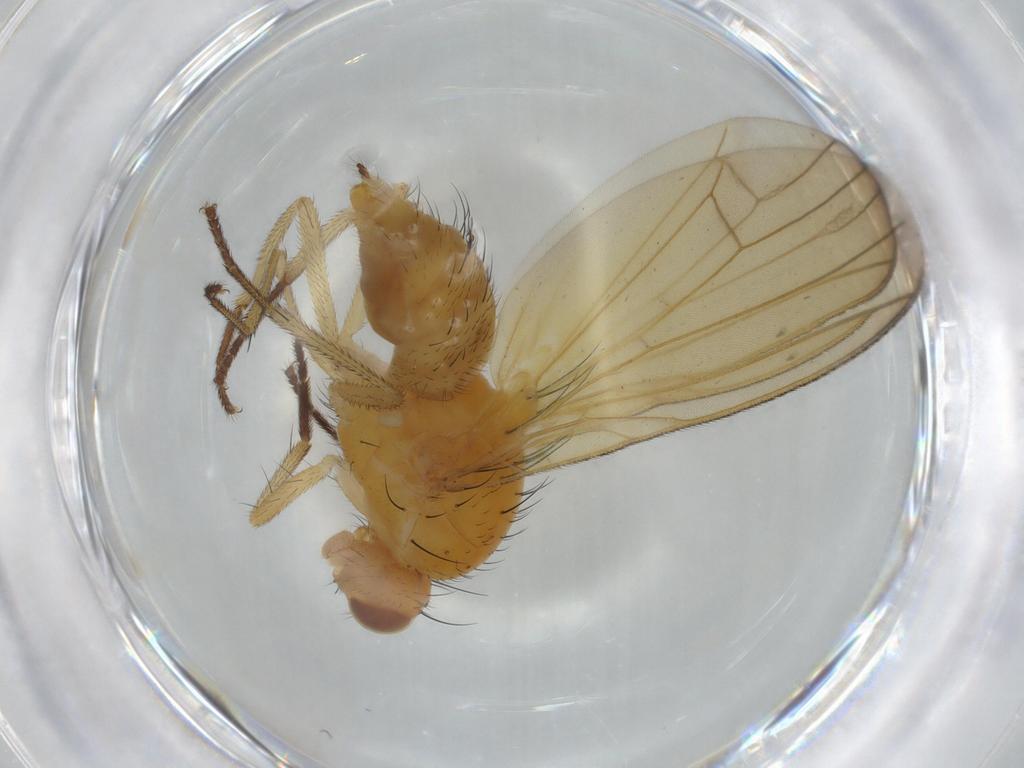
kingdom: Animalia
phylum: Arthropoda
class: Insecta
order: Diptera
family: Lauxaniidae
